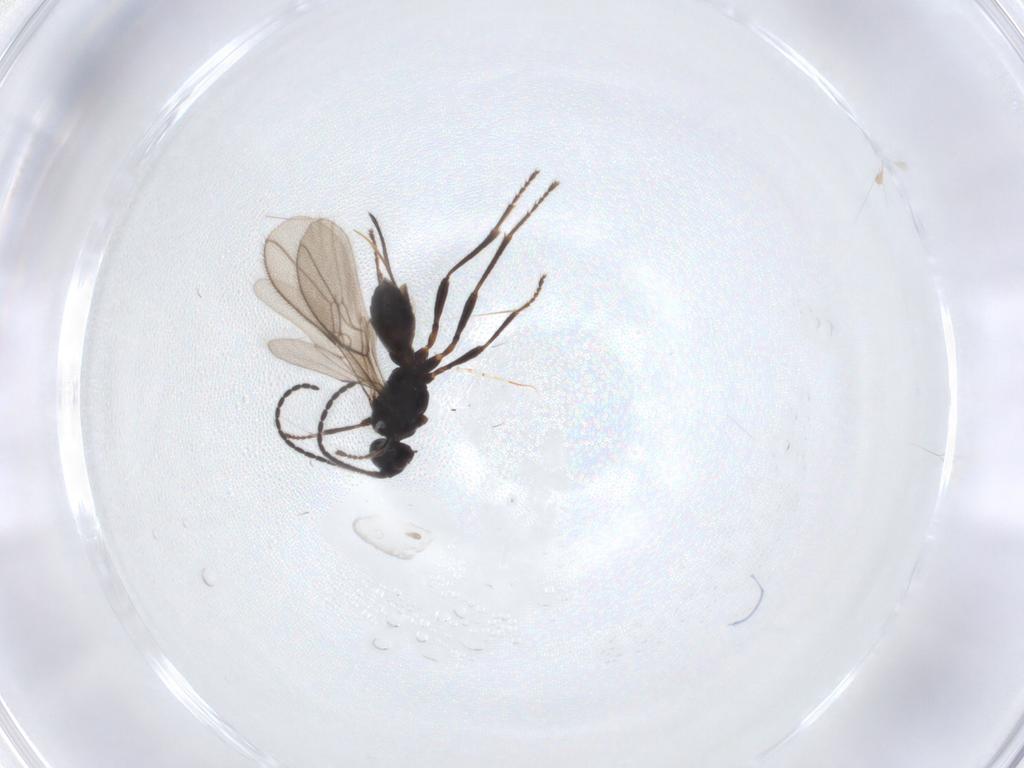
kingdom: Animalia
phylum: Arthropoda
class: Insecta
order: Hymenoptera
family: Braconidae
